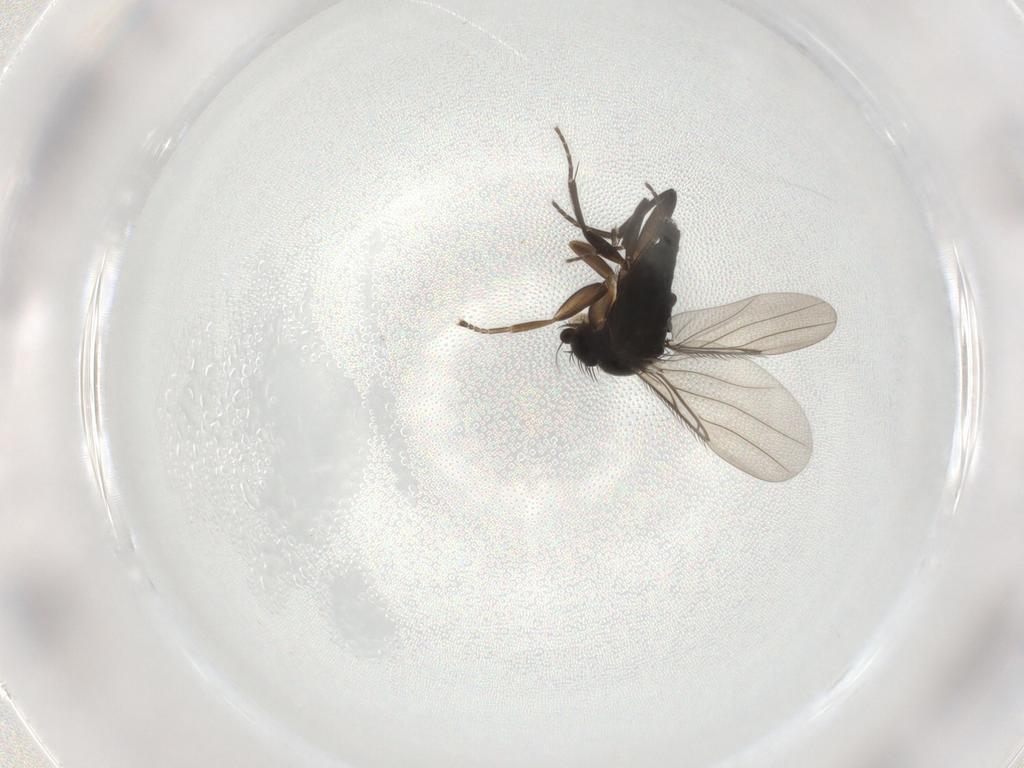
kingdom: Animalia
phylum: Arthropoda
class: Insecta
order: Diptera
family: Phoridae
